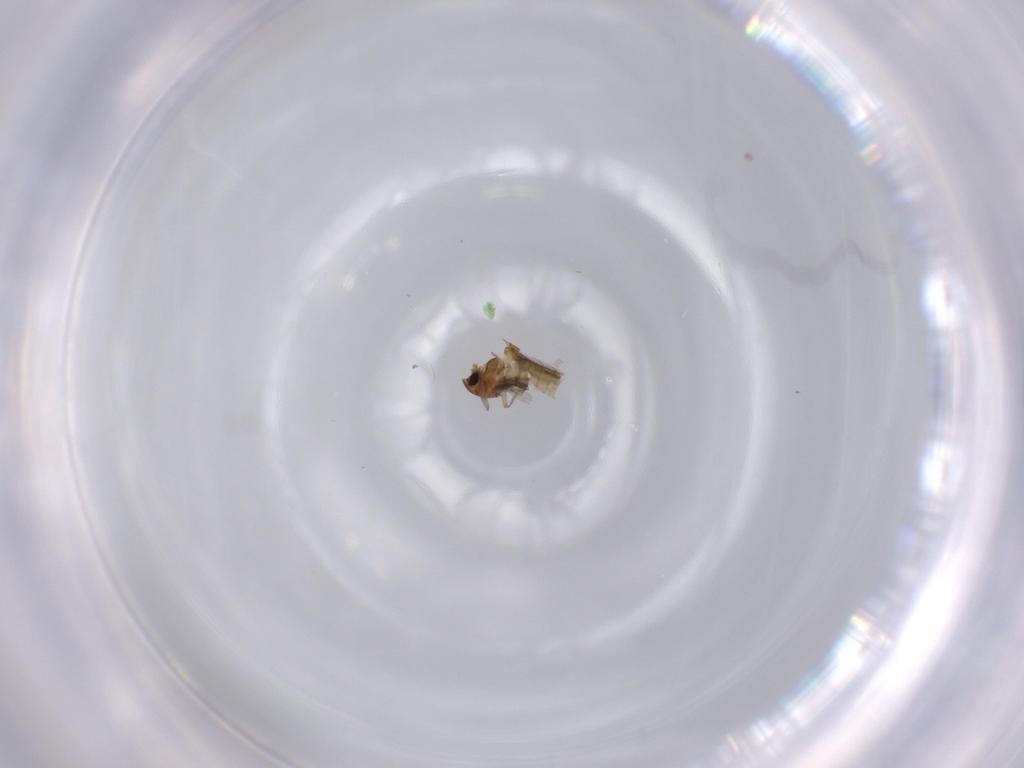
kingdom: Animalia
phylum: Arthropoda
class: Insecta
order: Diptera
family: Chironomidae
